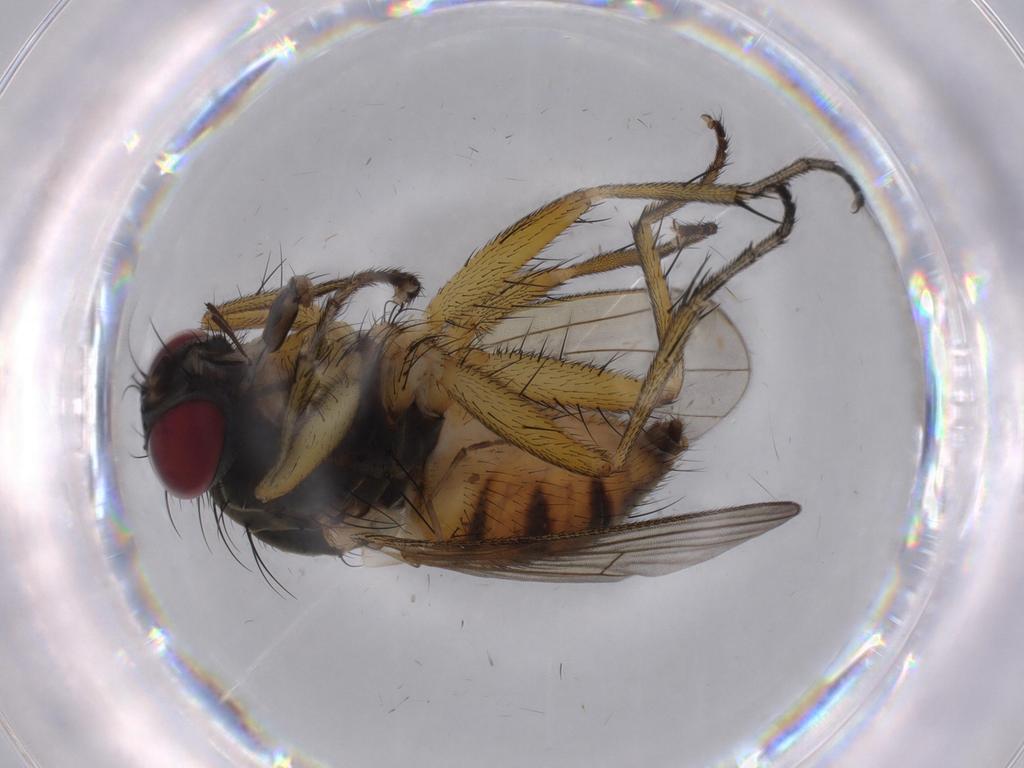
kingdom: Animalia
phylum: Arthropoda
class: Insecta
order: Diptera
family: Muscidae
